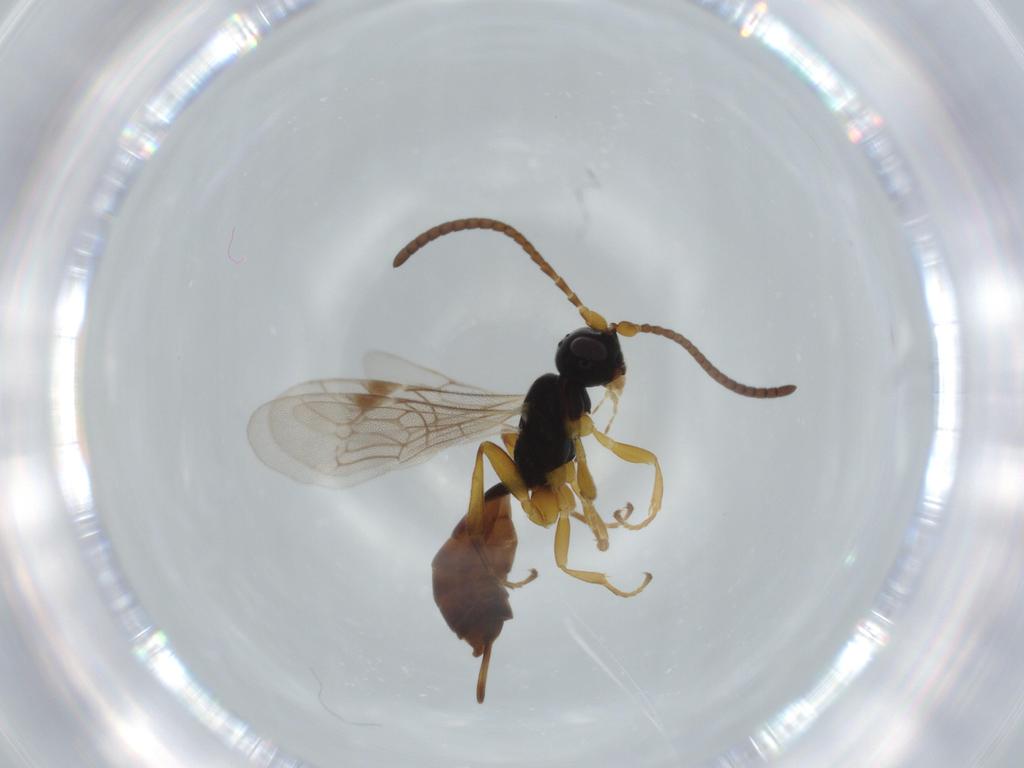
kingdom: Animalia
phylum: Arthropoda
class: Insecta
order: Hymenoptera
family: Ichneumonidae
